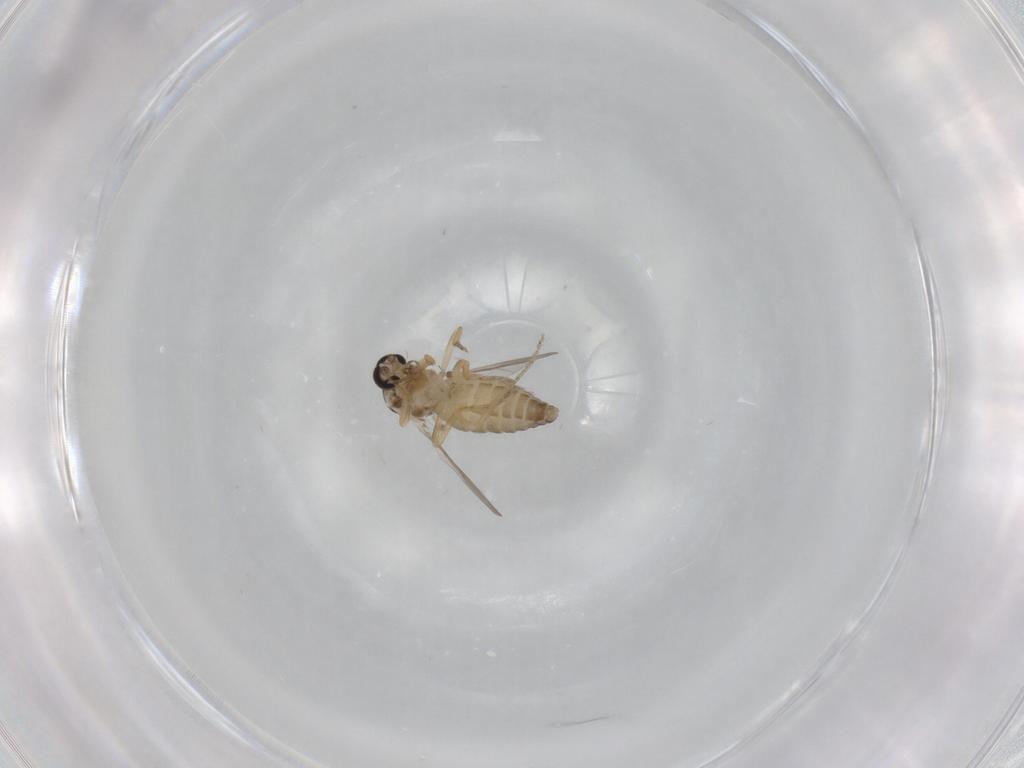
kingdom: Animalia
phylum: Arthropoda
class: Insecta
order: Diptera
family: Ceratopogonidae
